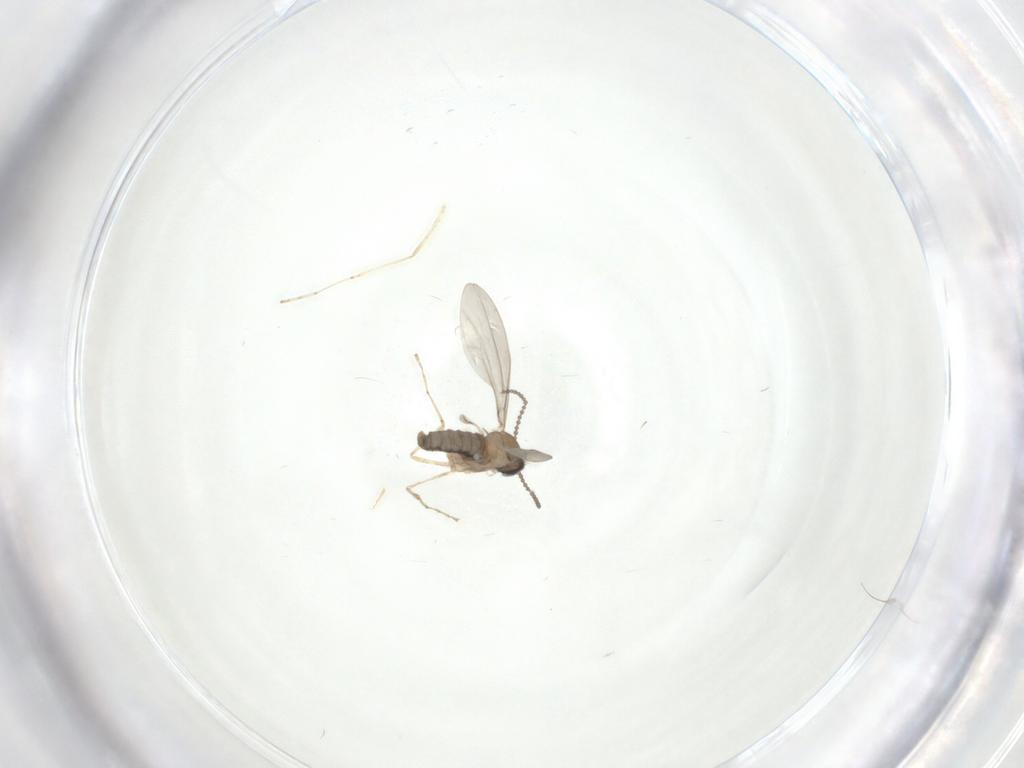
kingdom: Animalia
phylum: Arthropoda
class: Insecta
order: Diptera
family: Cecidomyiidae
